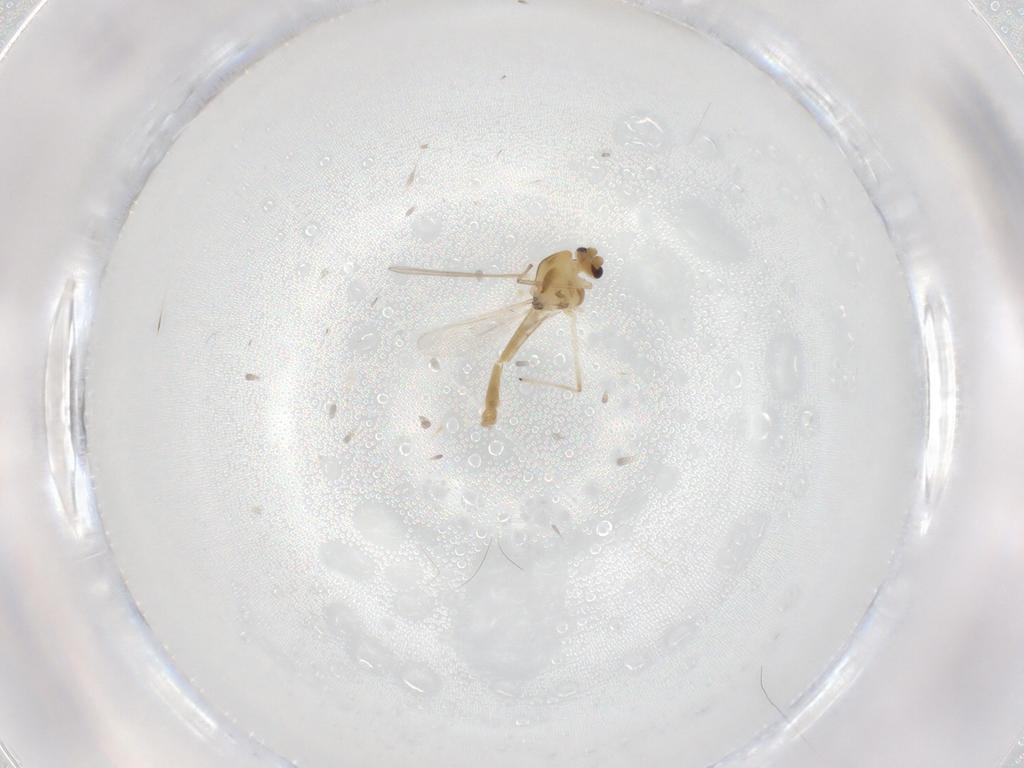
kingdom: Animalia
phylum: Arthropoda
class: Insecta
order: Diptera
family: Chironomidae
